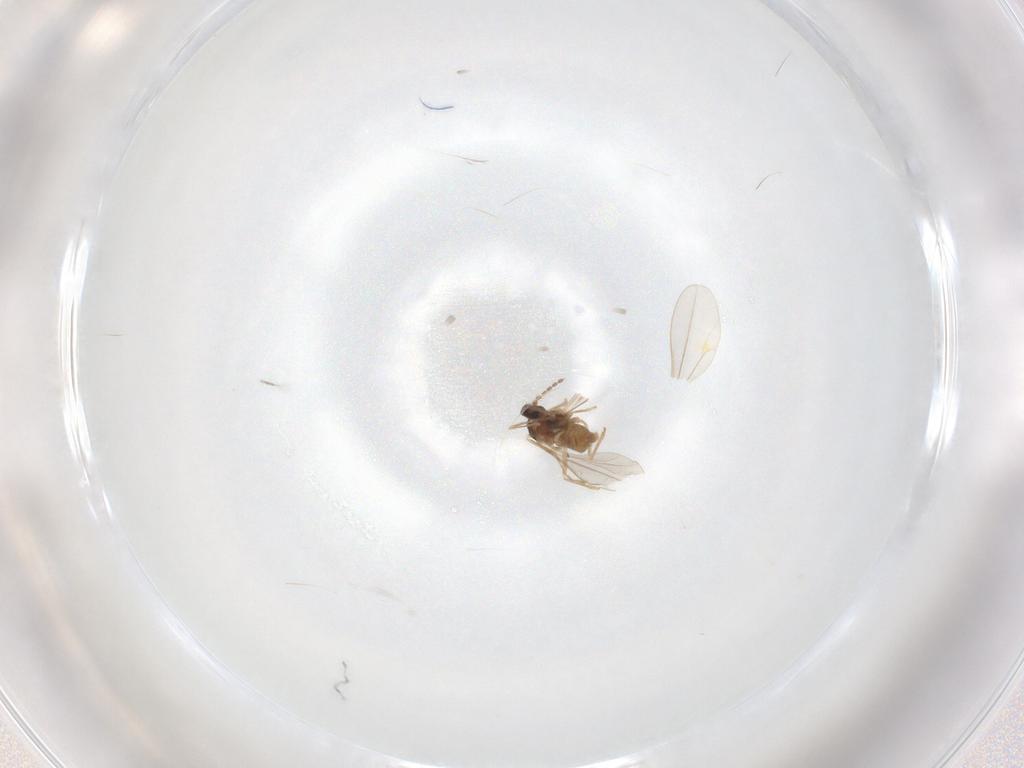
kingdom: Animalia
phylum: Arthropoda
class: Insecta
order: Diptera
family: Cecidomyiidae
